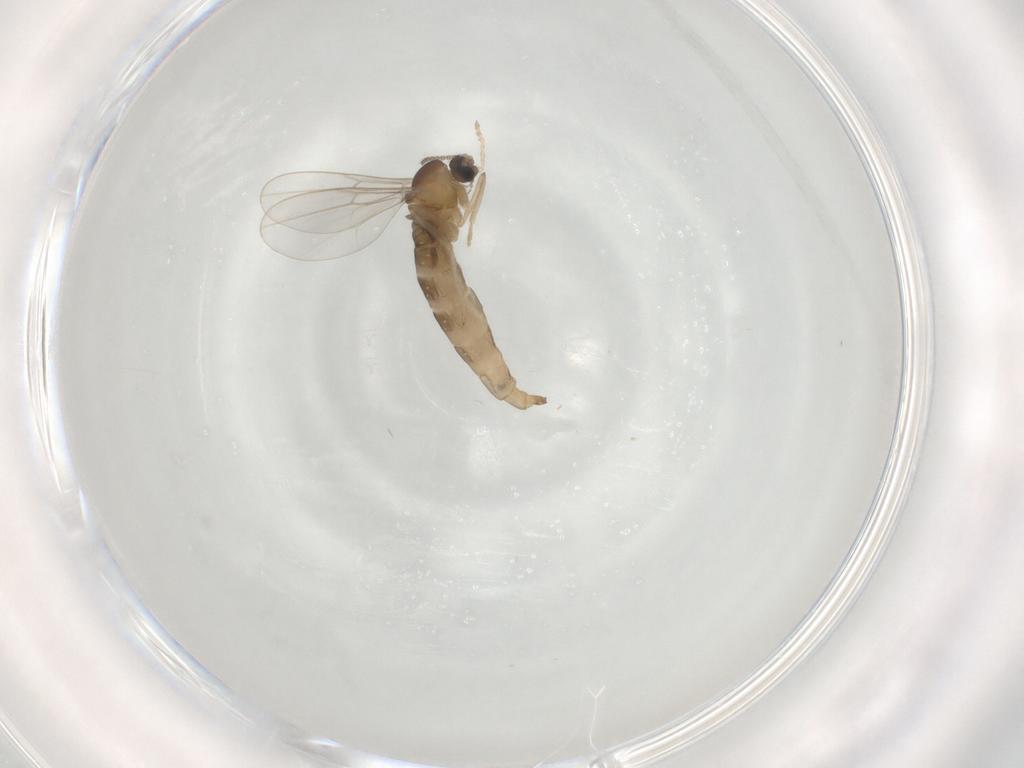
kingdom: Animalia
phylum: Arthropoda
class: Insecta
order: Diptera
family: Cecidomyiidae
